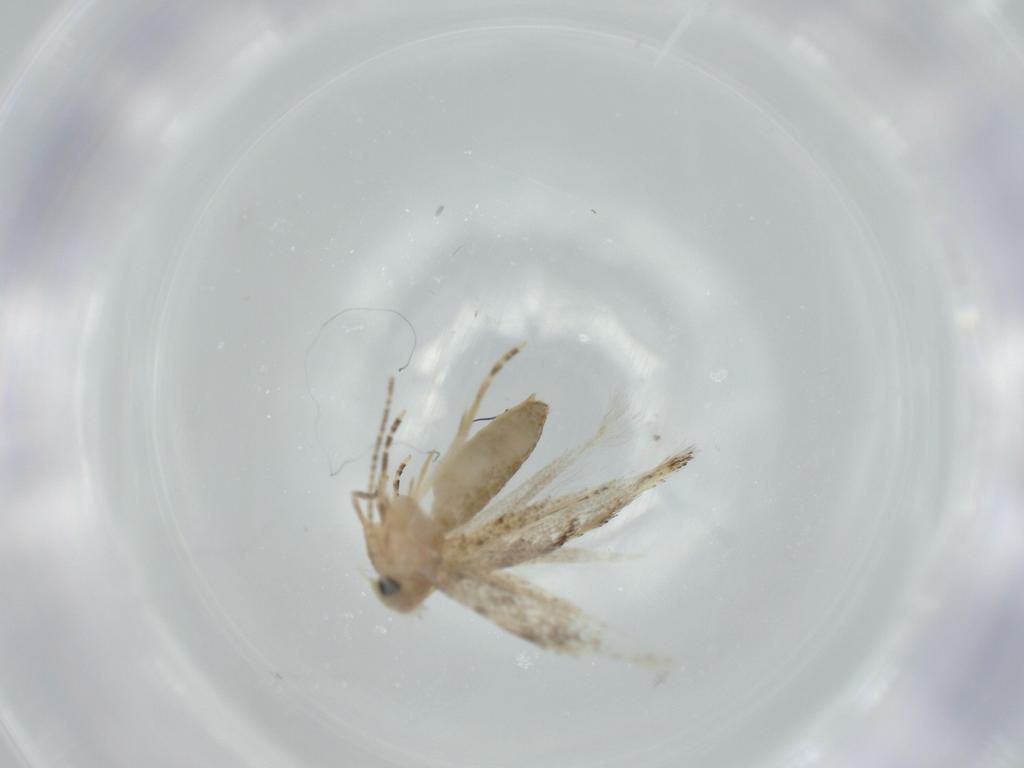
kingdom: Animalia
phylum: Arthropoda
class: Insecta
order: Lepidoptera
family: Bucculatricidae
